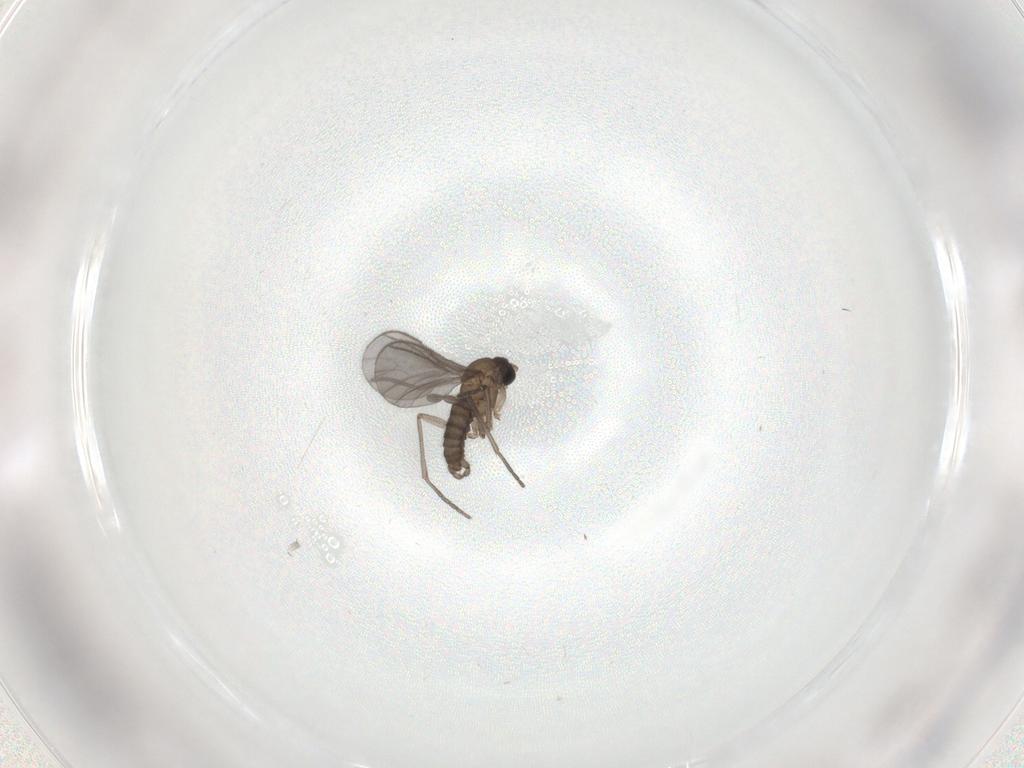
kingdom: Animalia
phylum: Arthropoda
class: Insecta
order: Diptera
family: Sciaridae
